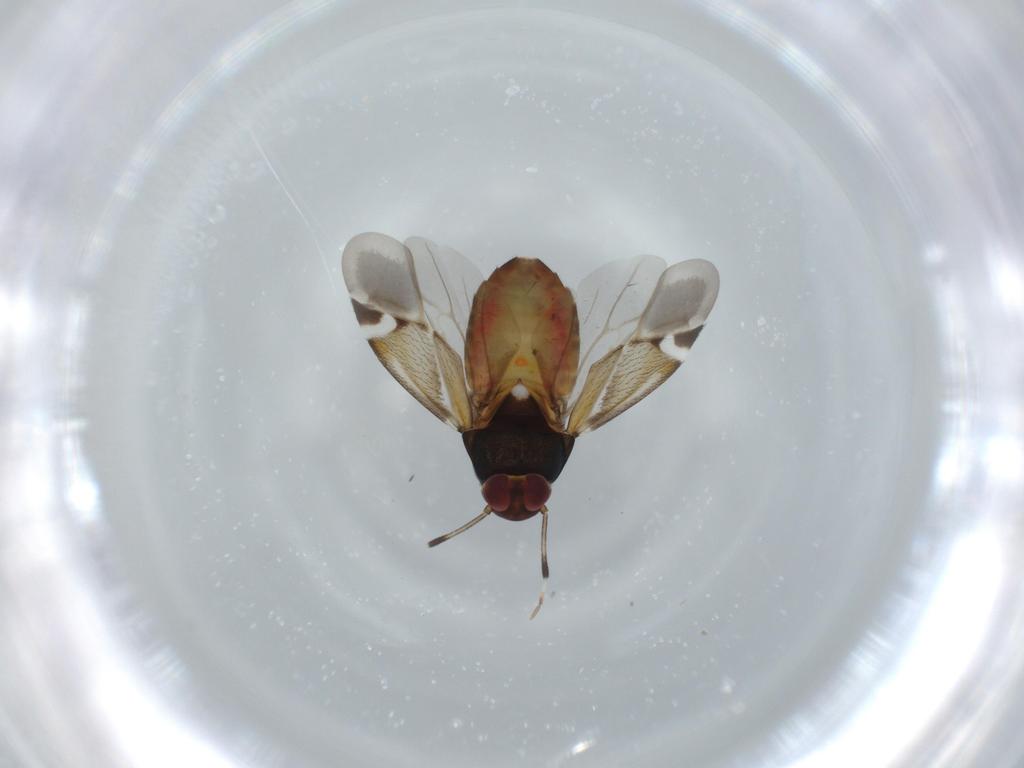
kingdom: Animalia
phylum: Arthropoda
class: Insecta
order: Hemiptera
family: Miridae
